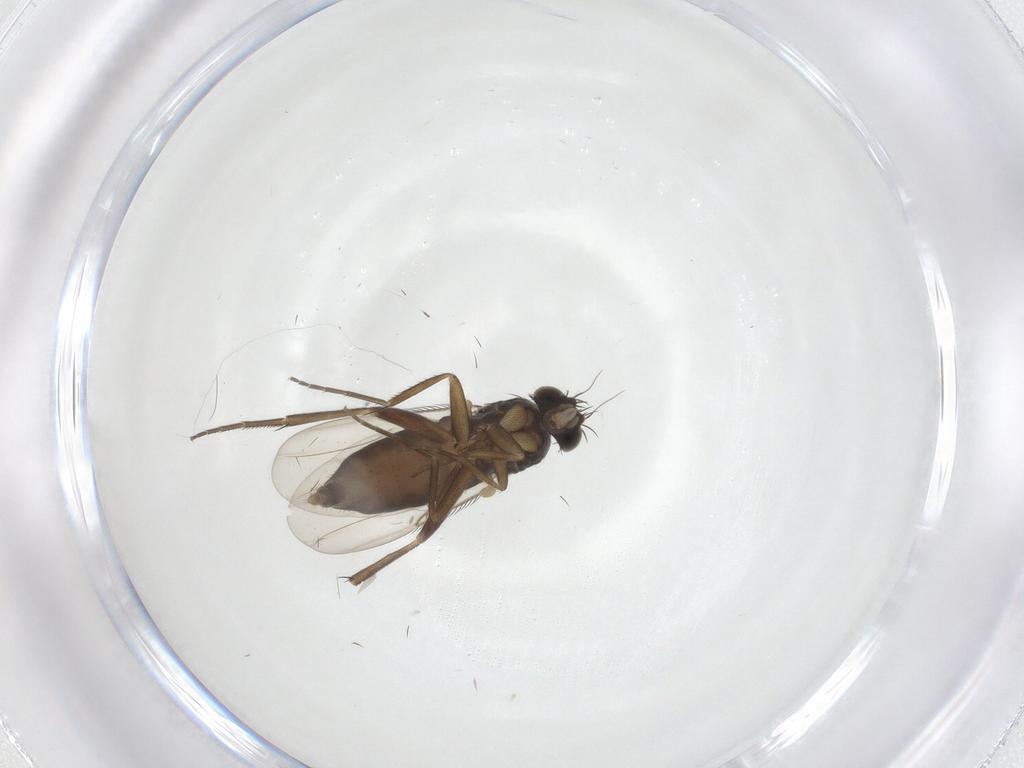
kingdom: Animalia
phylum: Arthropoda
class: Insecta
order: Diptera
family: Phoridae
